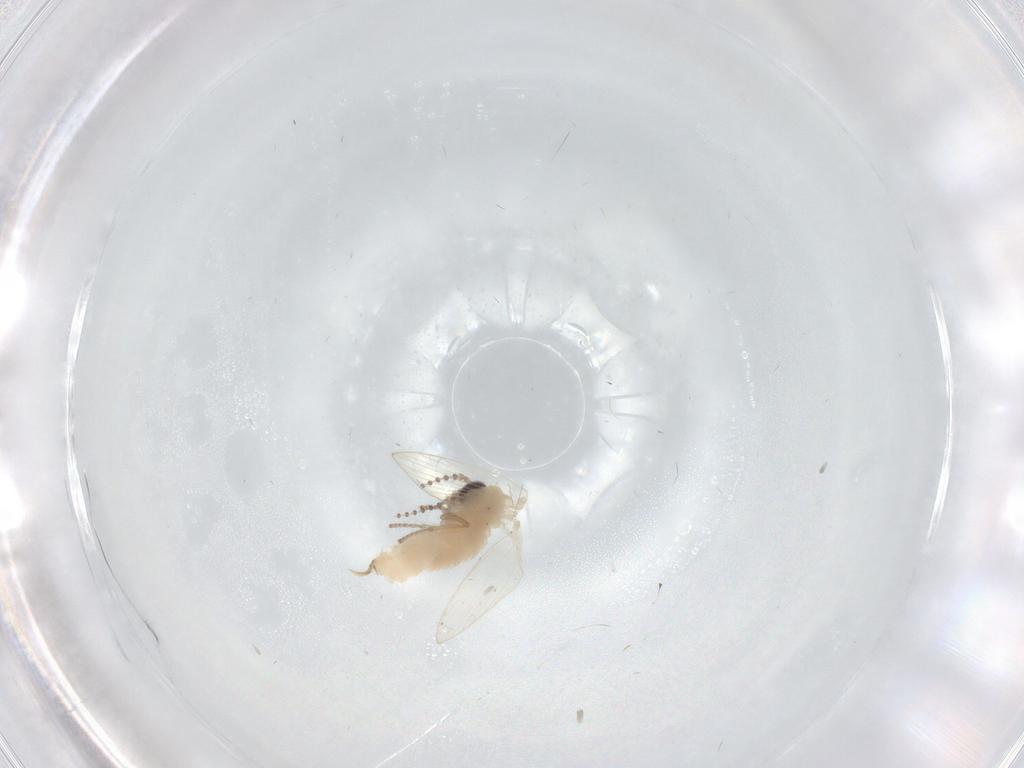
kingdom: Animalia
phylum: Arthropoda
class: Insecta
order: Diptera
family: Psychodidae
